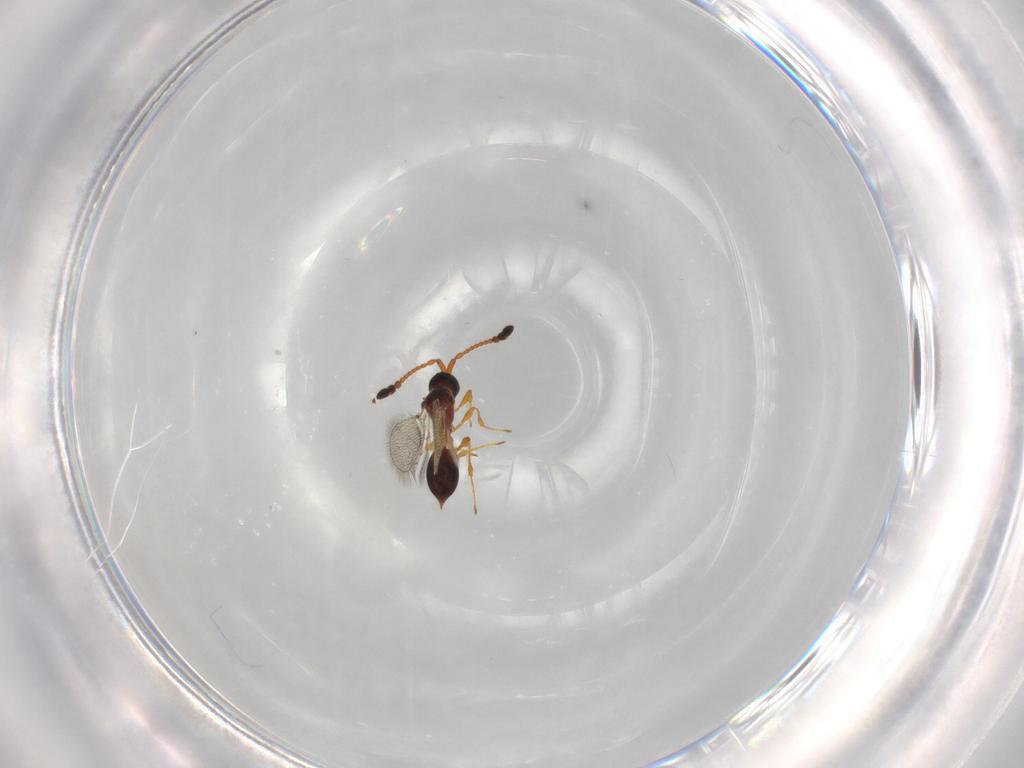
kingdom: Animalia
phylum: Arthropoda
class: Insecta
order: Hymenoptera
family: Diapriidae
